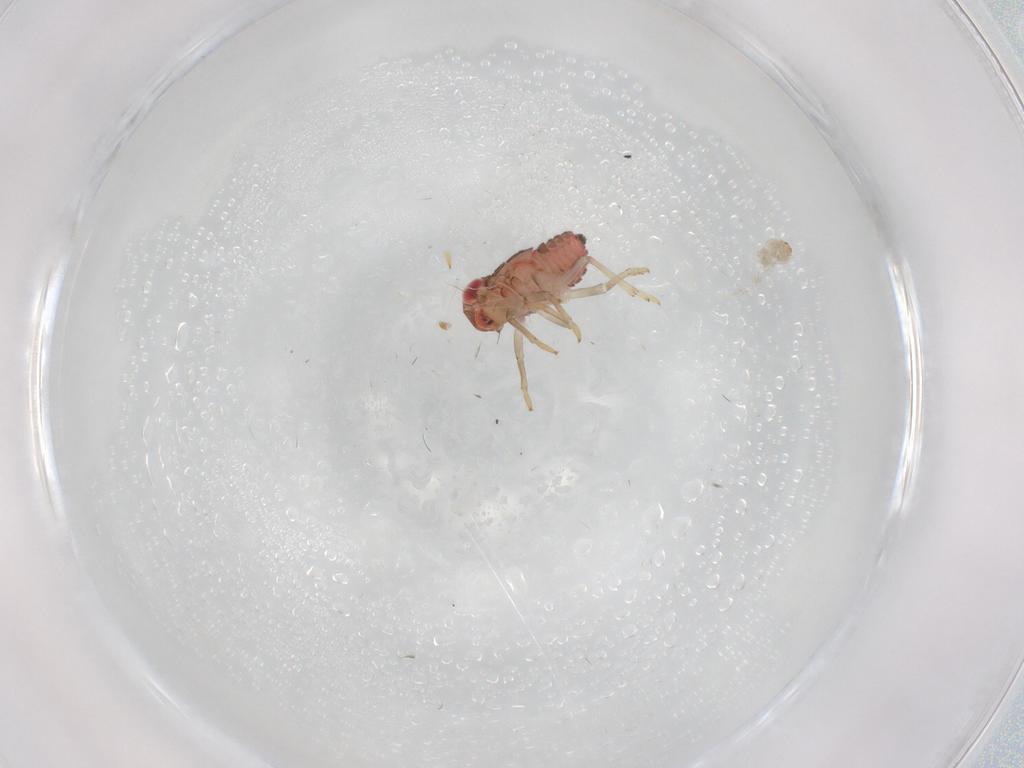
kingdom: Animalia
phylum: Arthropoda
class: Insecta
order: Hemiptera
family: Issidae
